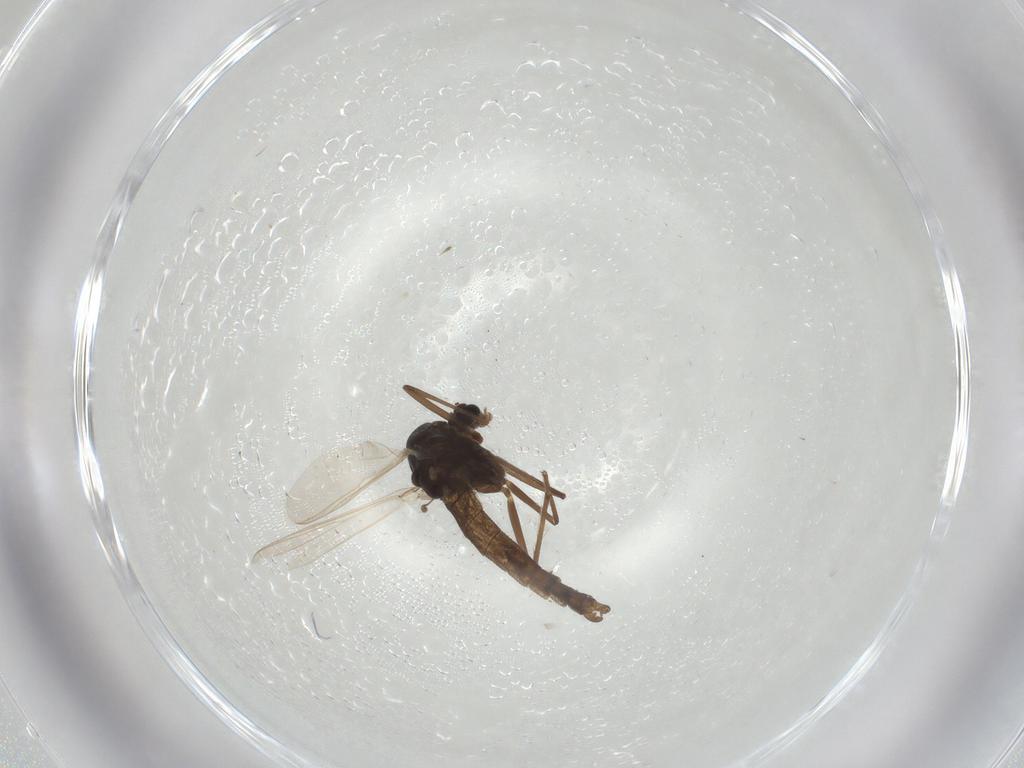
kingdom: Animalia
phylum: Arthropoda
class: Insecta
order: Diptera
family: Chironomidae
